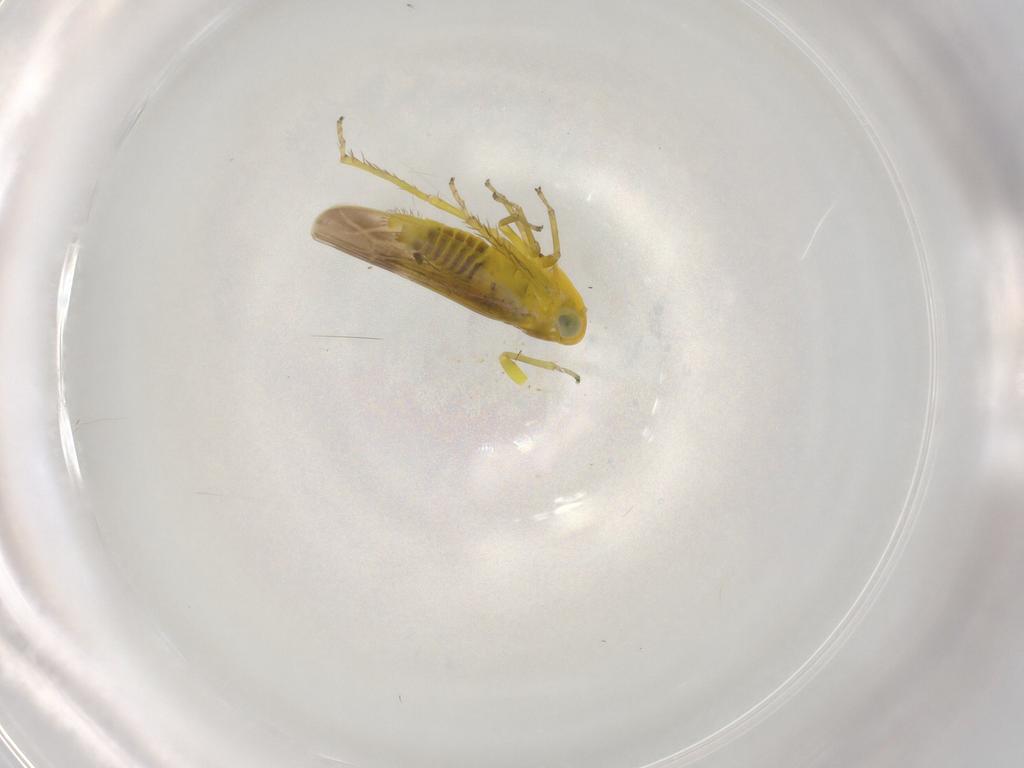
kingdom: Animalia
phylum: Arthropoda
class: Insecta
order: Hemiptera
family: Cicadellidae
